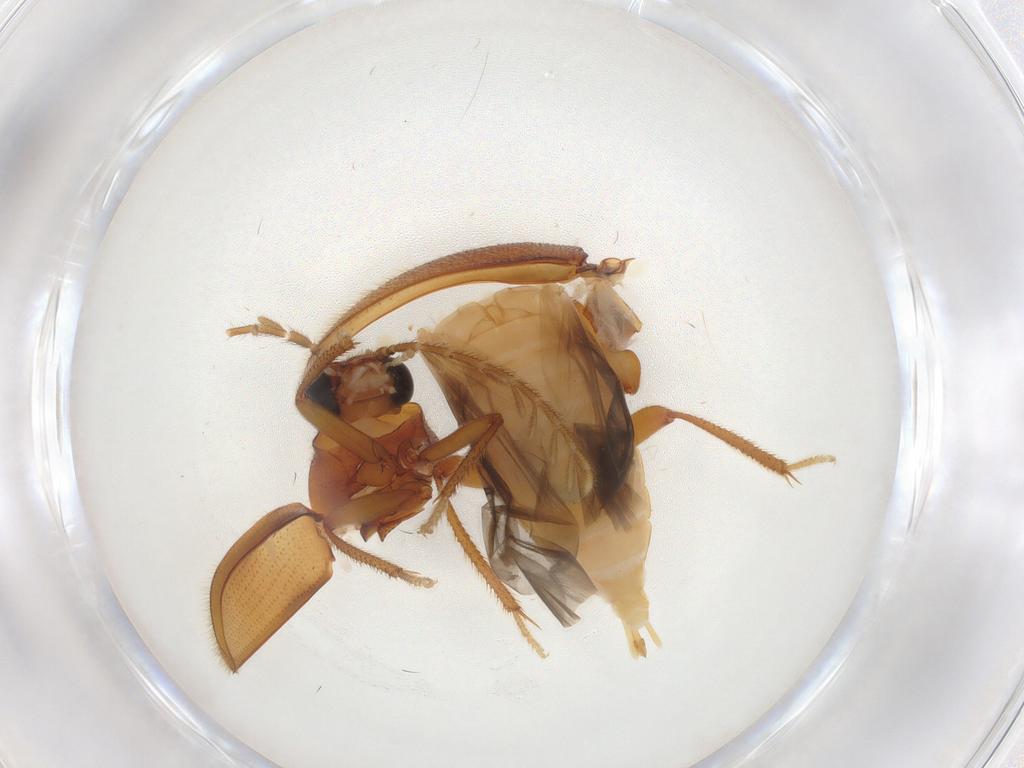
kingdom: Animalia
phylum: Arthropoda
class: Insecta
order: Coleoptera
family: Ptilodactylidae
